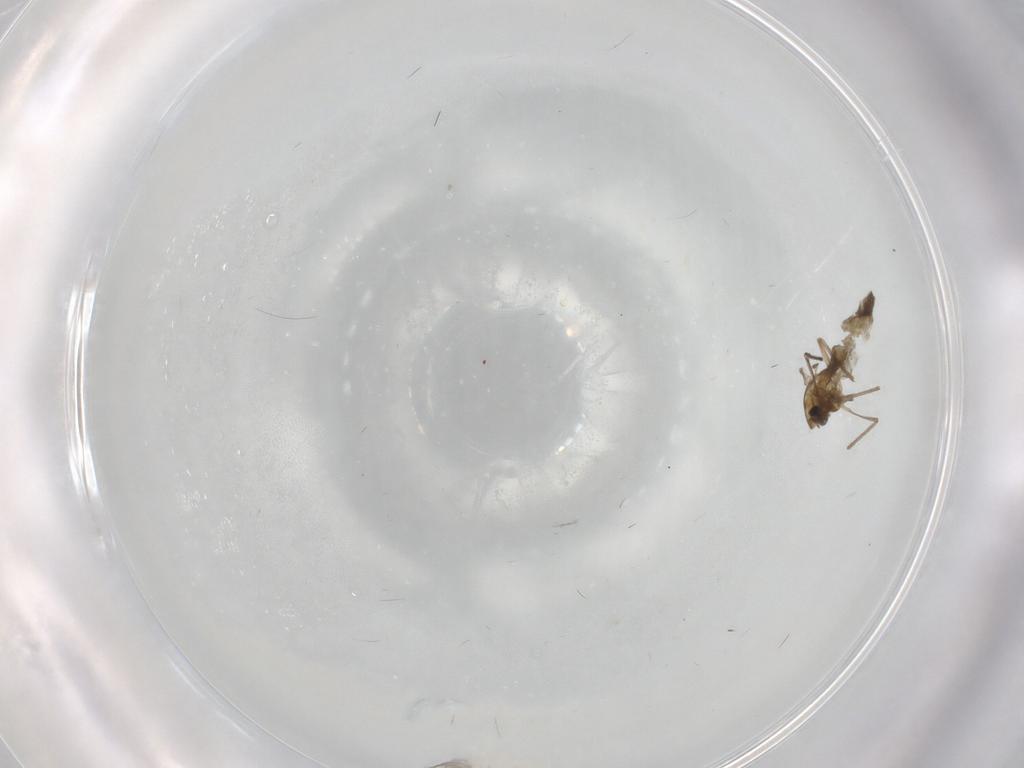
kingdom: Animalia
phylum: Arthropoda
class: Insecta
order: Diptera
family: Chironomidae
